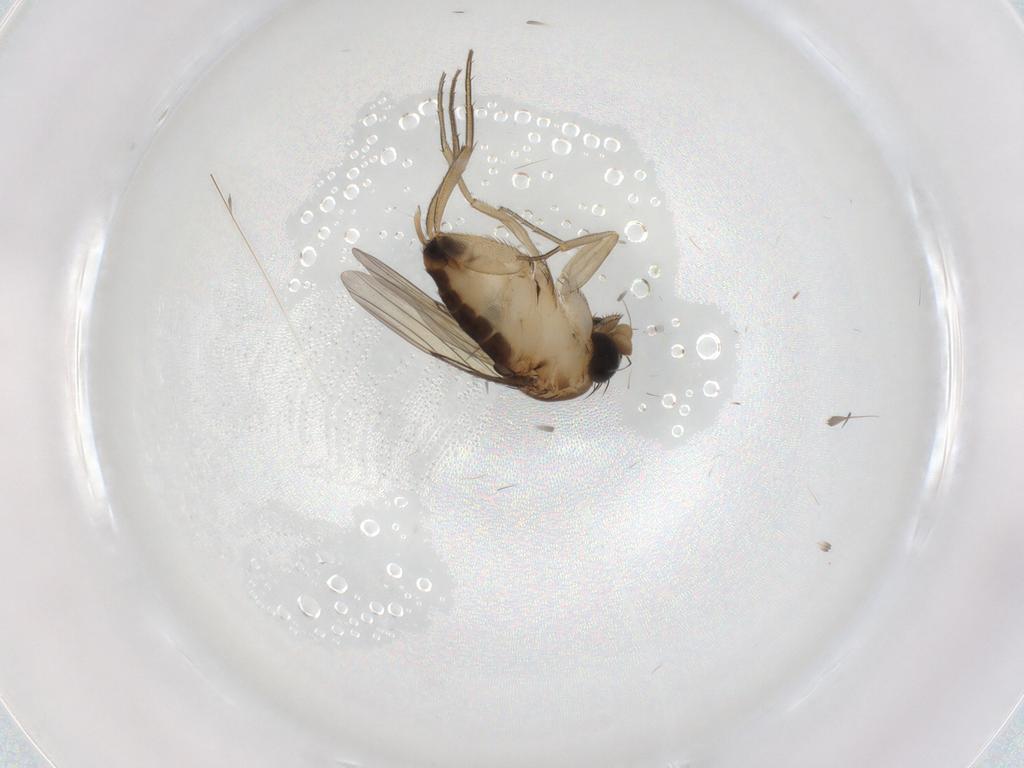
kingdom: Animalia
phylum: Arthropoda
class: Insecta
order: Diptera
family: Phoridae
